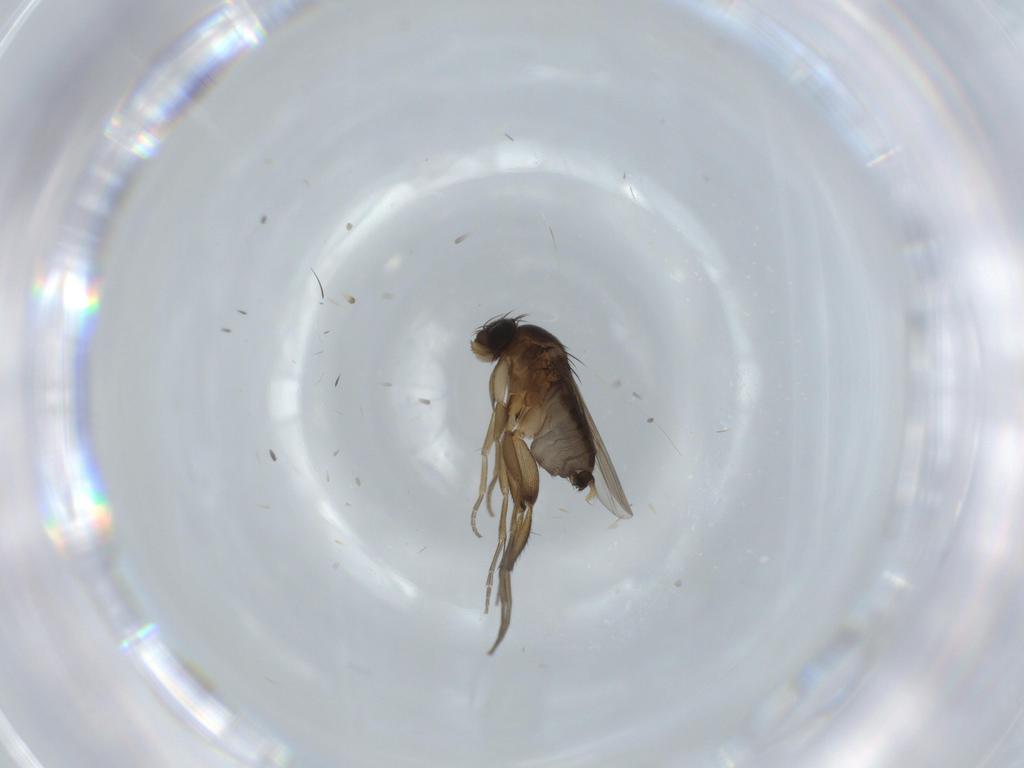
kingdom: Animalia
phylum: Arthropoda
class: Insecta
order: Diptera
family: Phoridae
